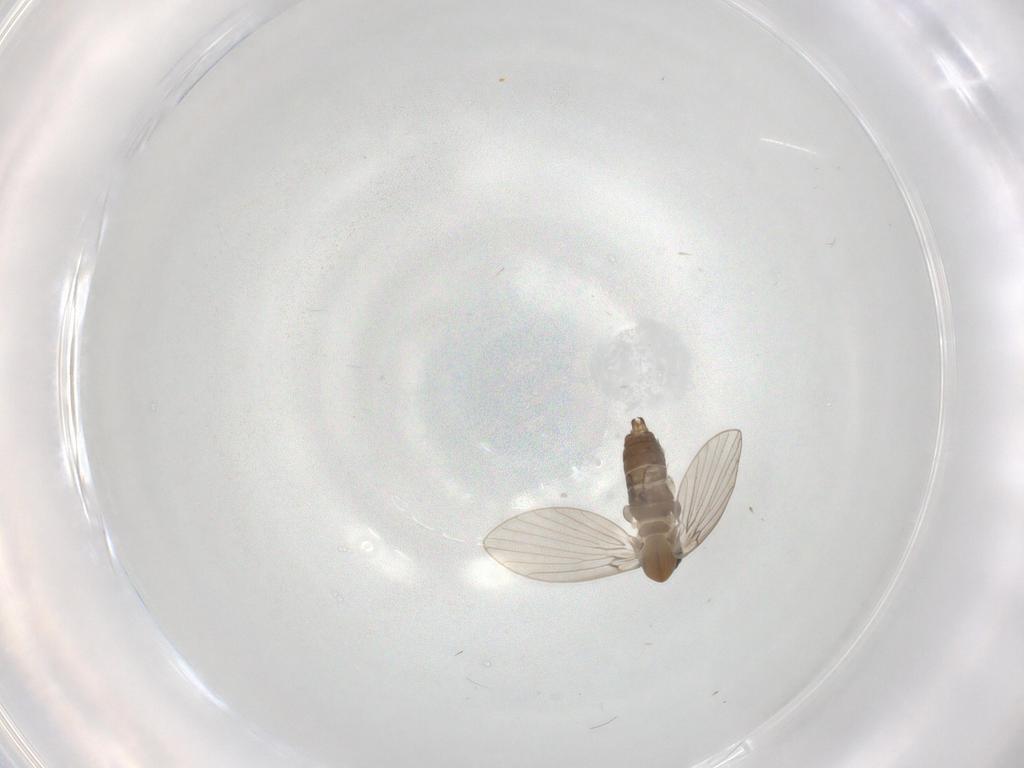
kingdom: Animalia
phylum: Arthropoda
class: Insecta
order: Diptera
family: Psychodidae
